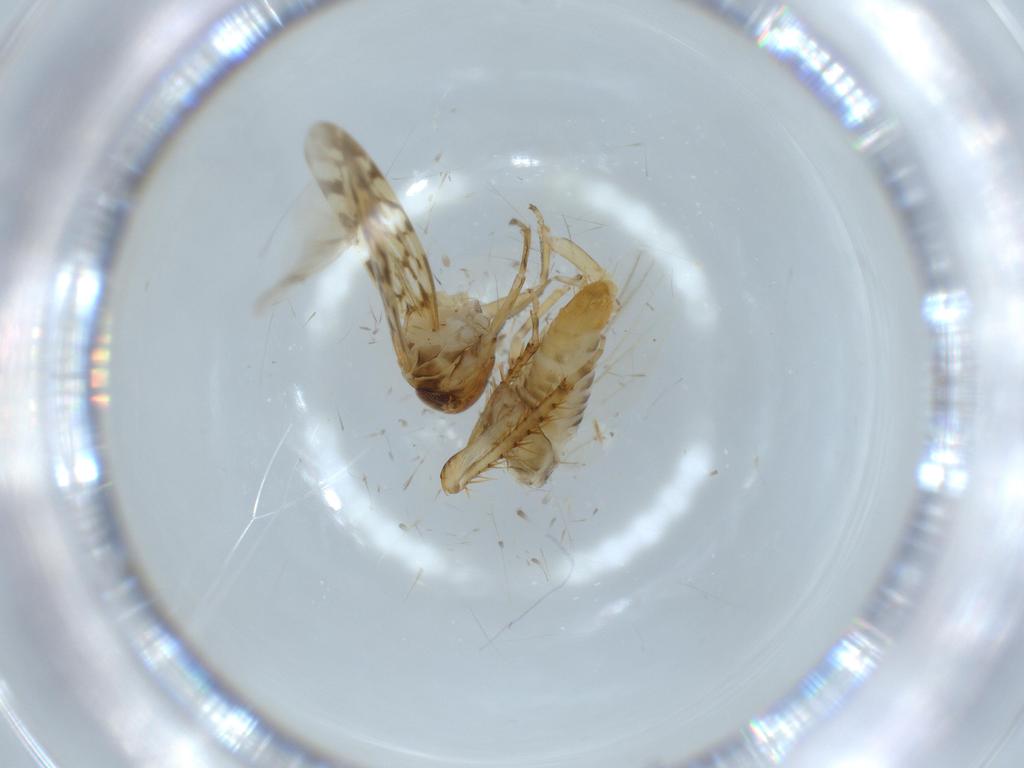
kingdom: Animalia
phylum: Arthropoda
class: Insecta
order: Hemiptera
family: Cicadellidae
